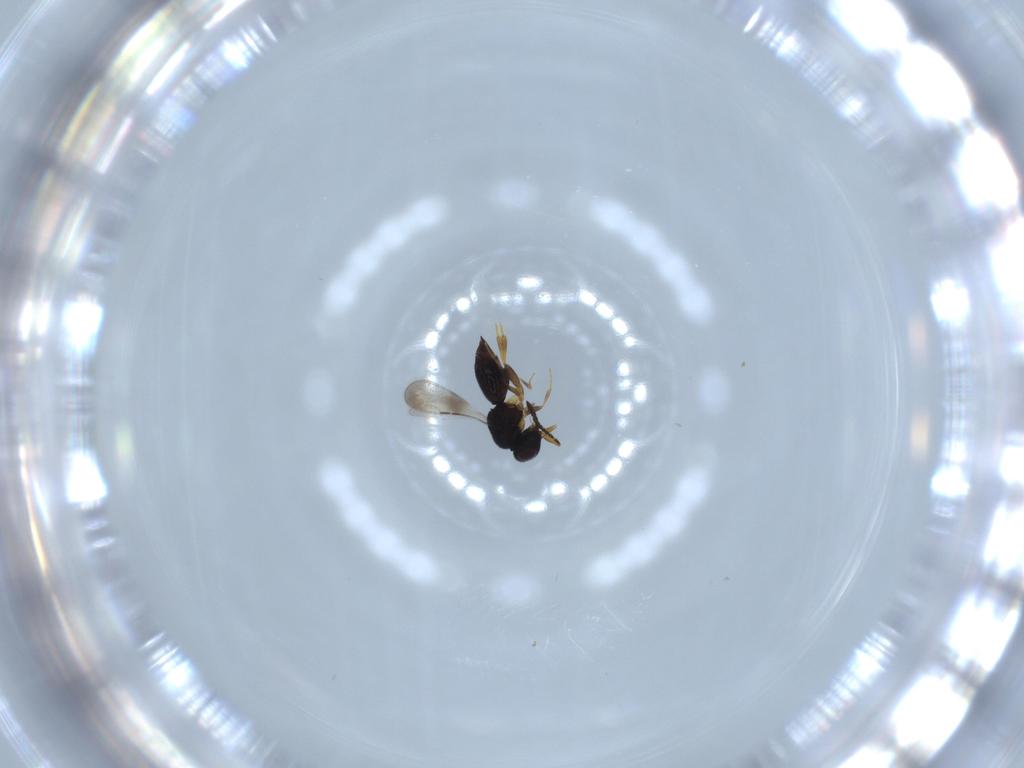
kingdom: Animalia
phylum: Arthropoda
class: Insecta
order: Hymenoptera
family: Ceraphronidae
